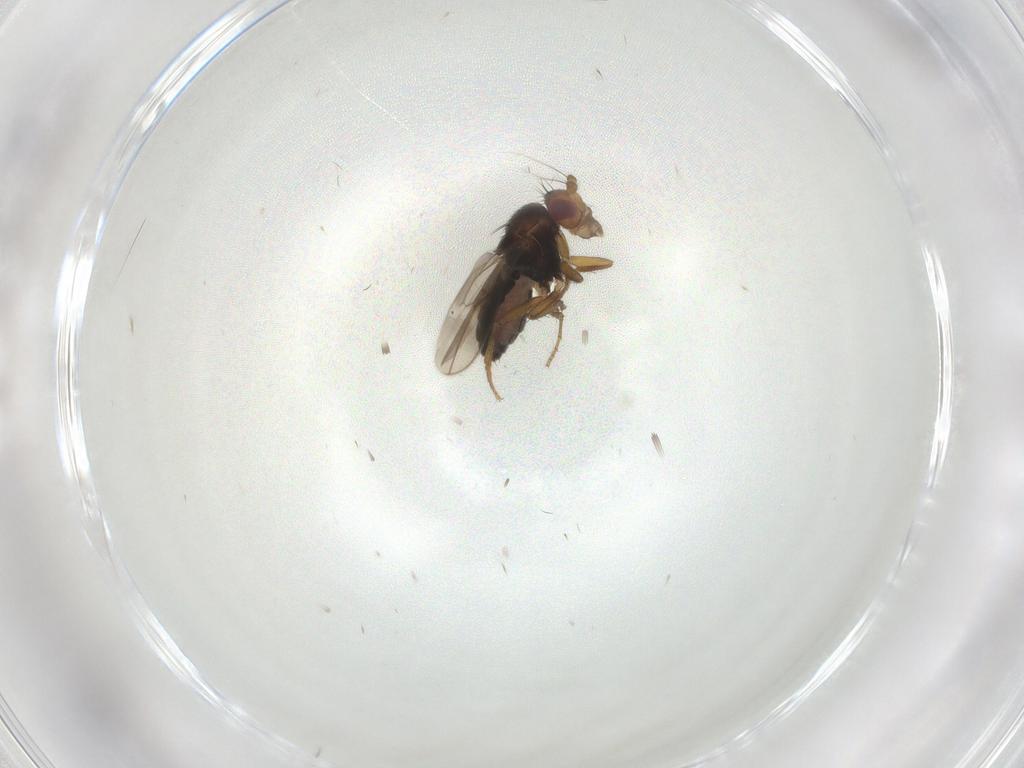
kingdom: Animalia
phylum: Arthropoda
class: Insecta
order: Diptera
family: Sphaeroceridae
